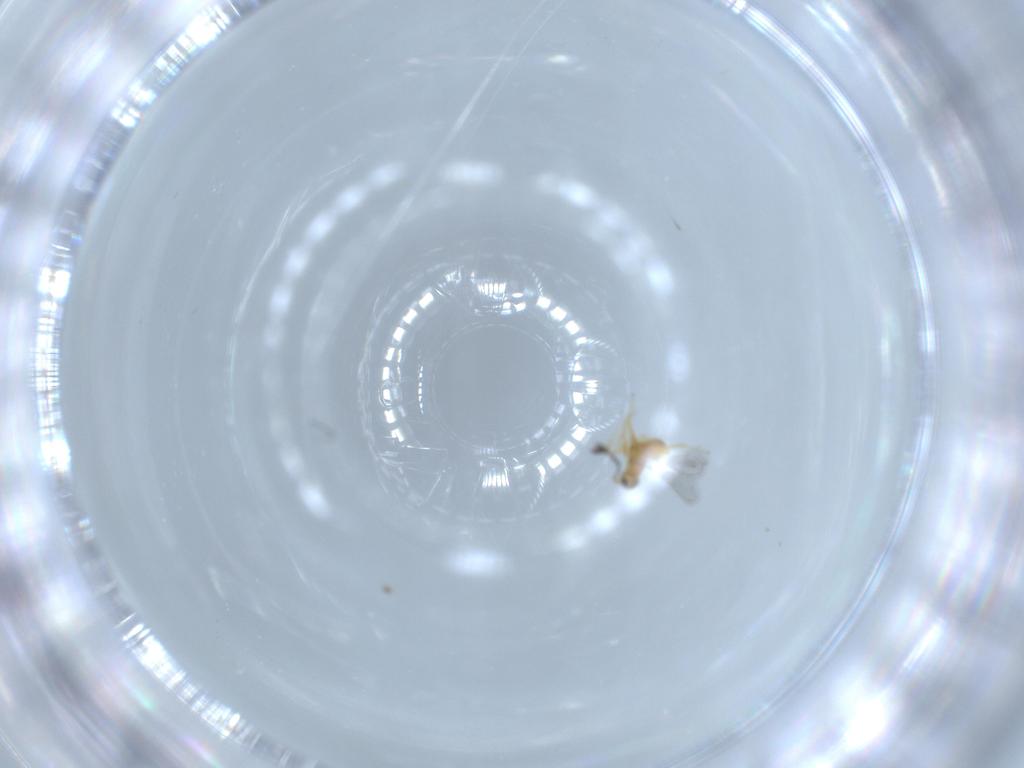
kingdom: Animalia
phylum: Arthropoda
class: Insecta
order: Hymenoptera
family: Mymaridae
